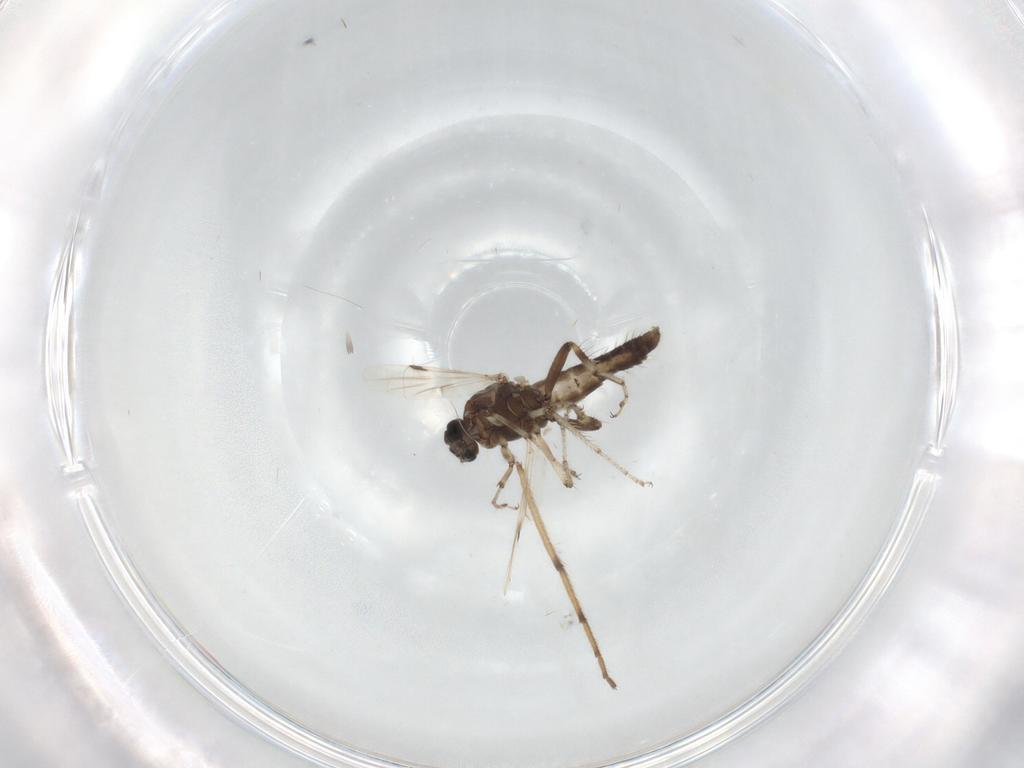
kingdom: Animalia
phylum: Arthropoda
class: Insecta
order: Diptera
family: Chironomidae
